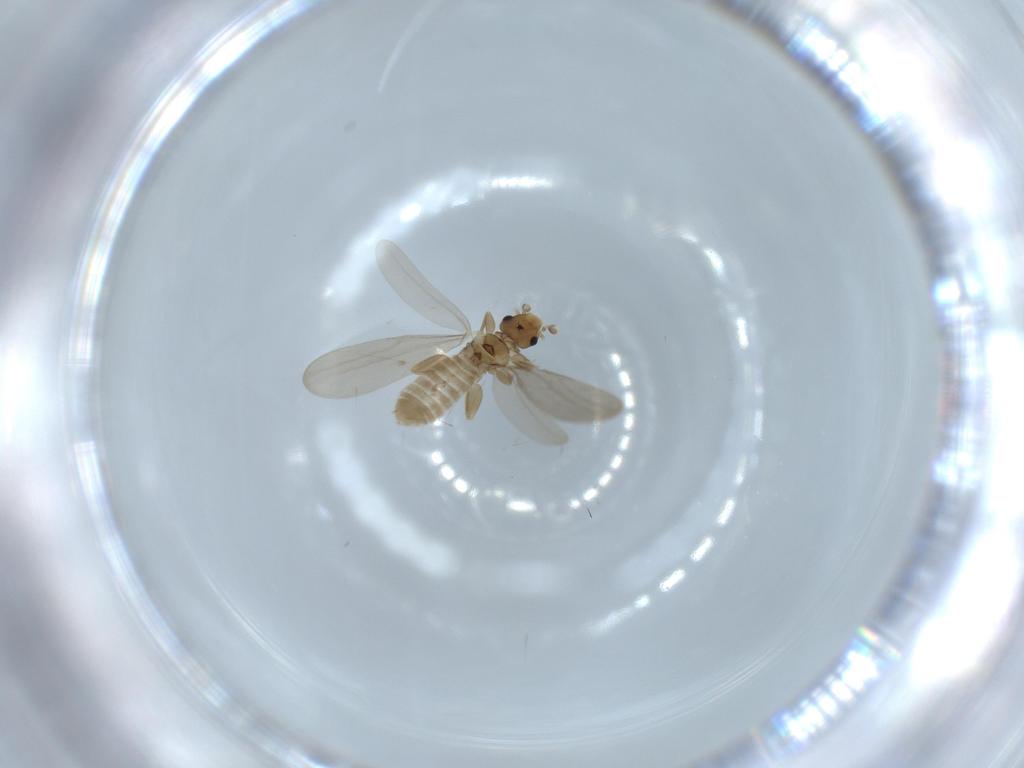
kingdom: Animalia
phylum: Arthropoda
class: Insecta
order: Psocodea
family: Liposcelididae
